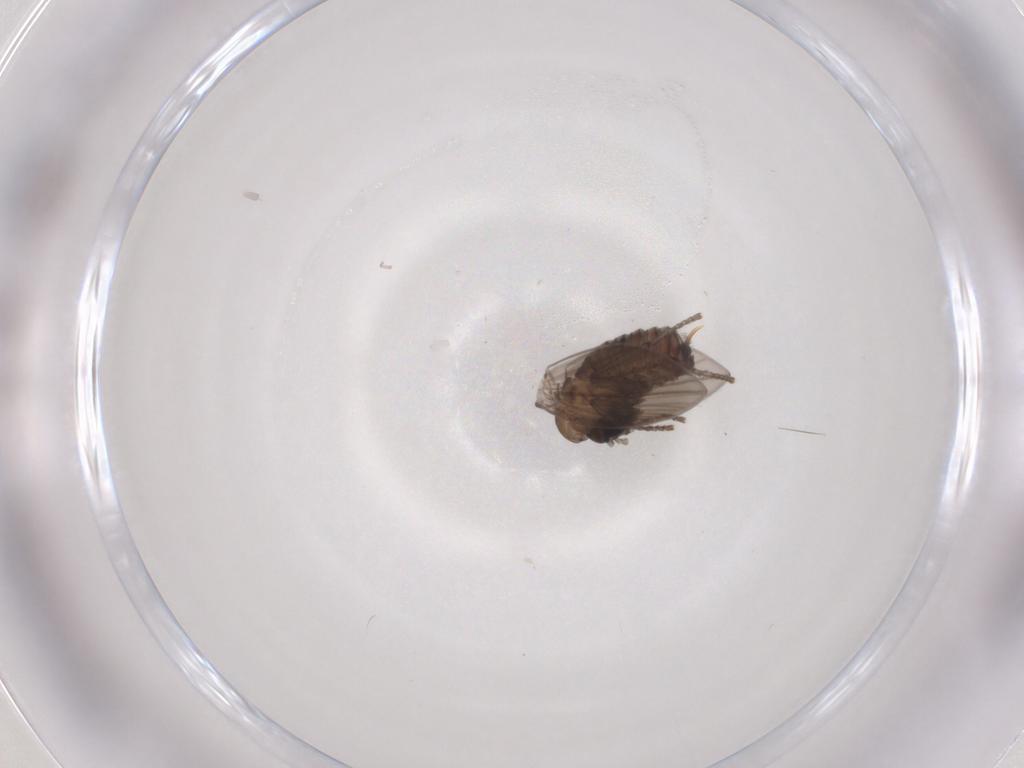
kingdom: Animalia
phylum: Arthropoda
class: Insecta
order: Diptera
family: Psychodidae
